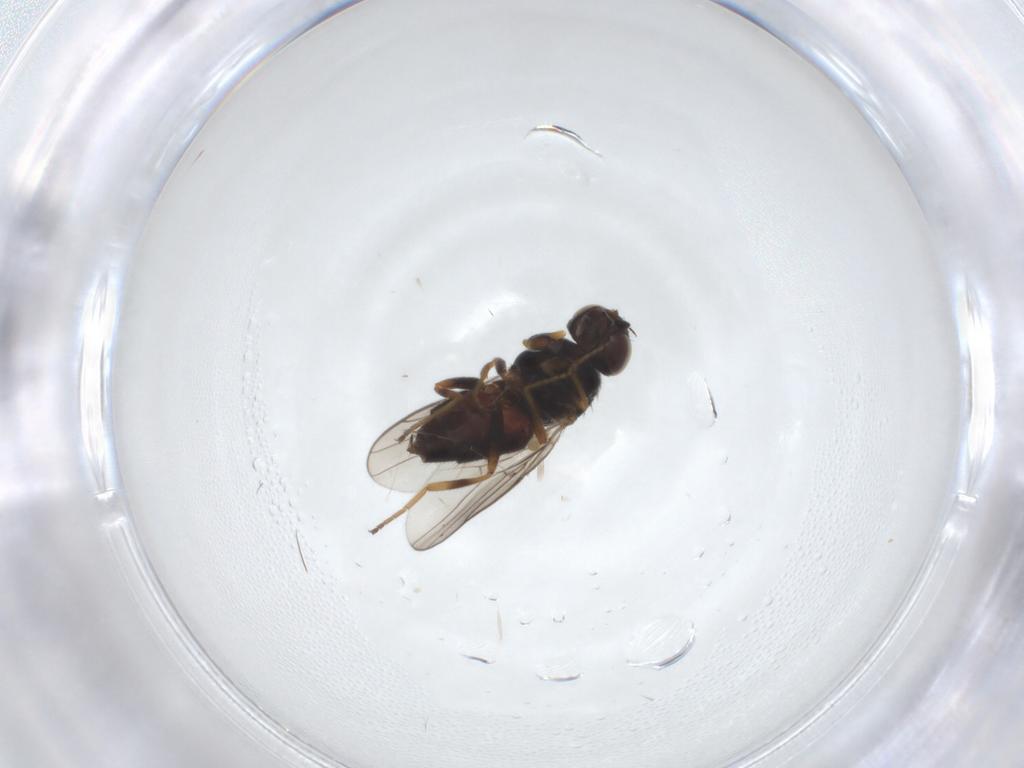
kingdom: Animalia
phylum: Arthropoda
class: Insecta
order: Diptera
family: Chloropidae
